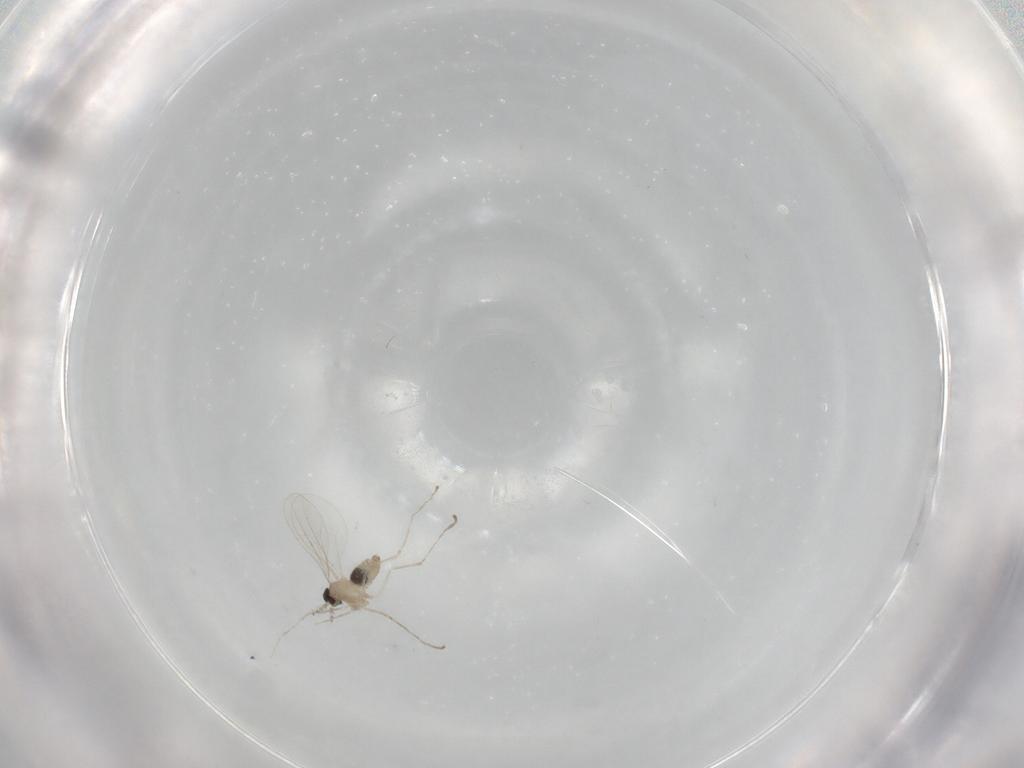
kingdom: Animalia
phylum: Arthropoda
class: Insecta
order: Diptera
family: Cecidomyiidae
